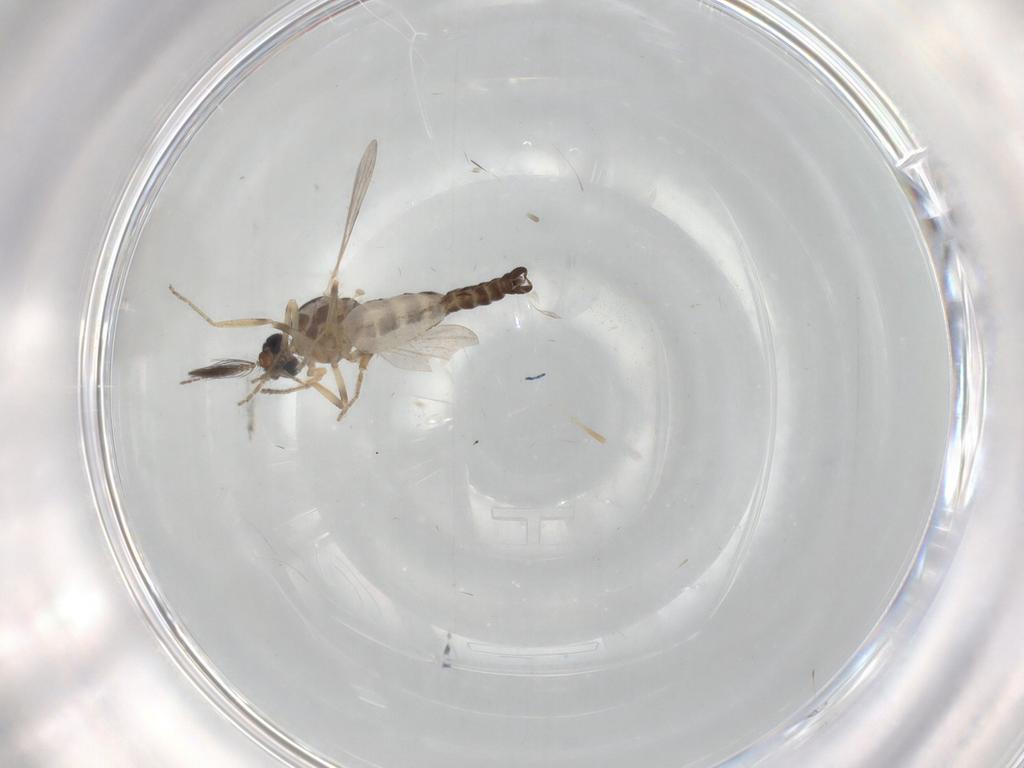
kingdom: Animalia
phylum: Arthropoda
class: Insecta
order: Diptera
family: Ceratopogonidae
